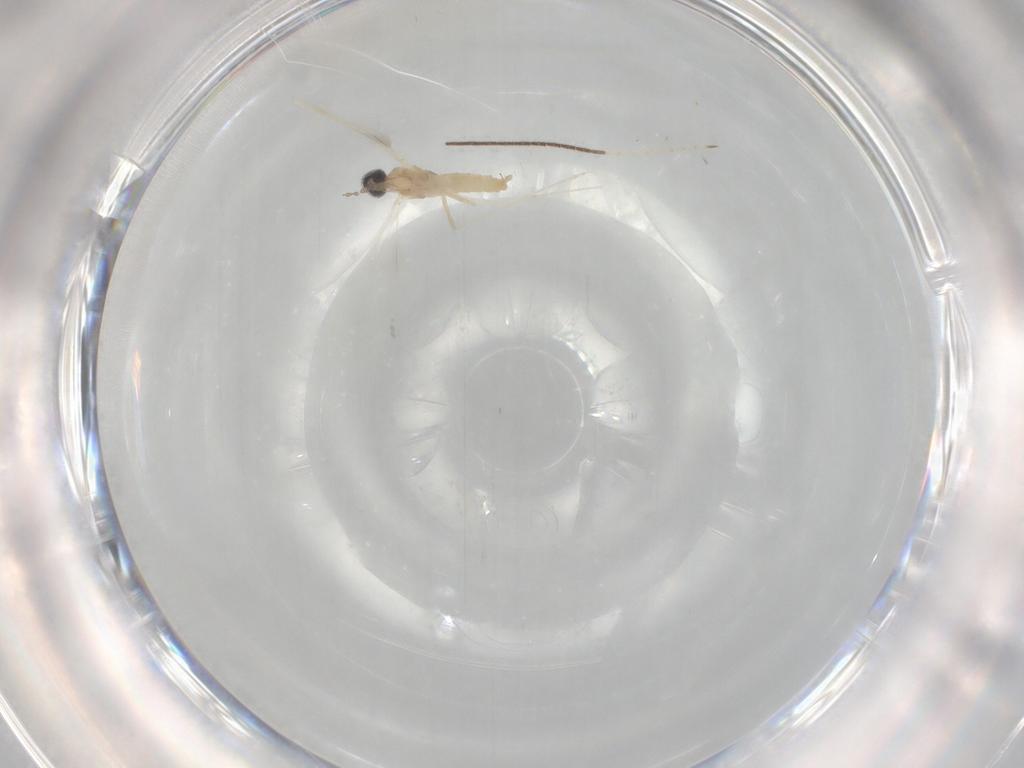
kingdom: Animalia
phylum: Arthropoda
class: Insecta
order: Diptera
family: Cecidomyiidae
